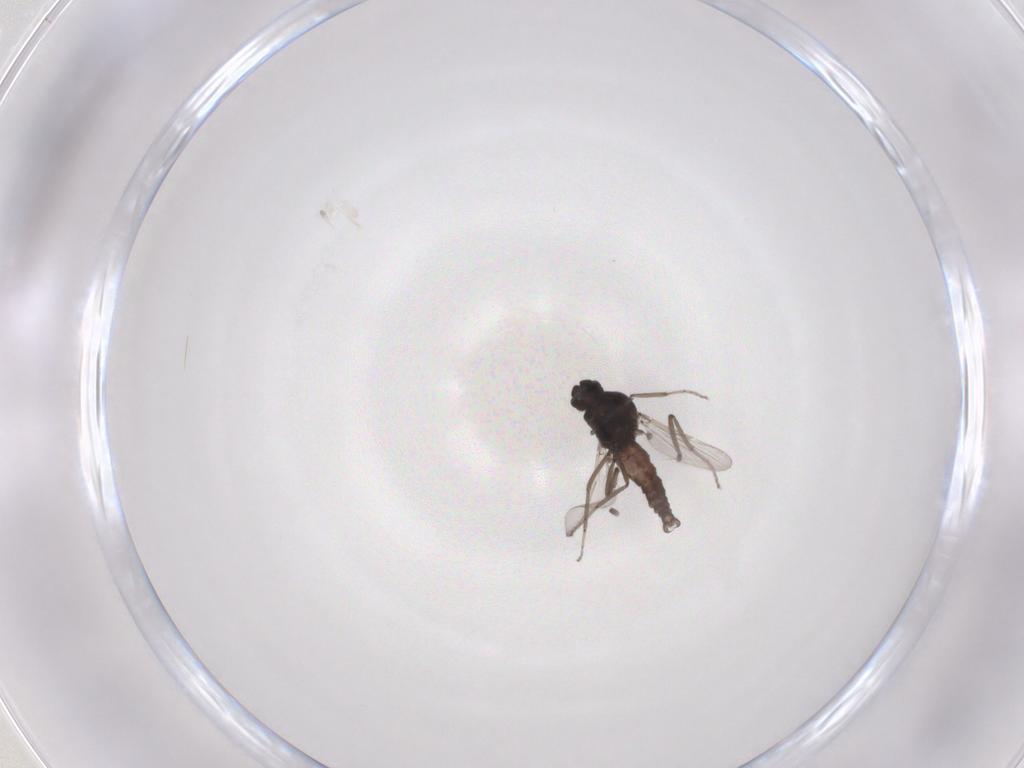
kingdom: Animalia
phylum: Arthropoda
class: Insecta
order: Diptera
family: Ceratopogonidae
